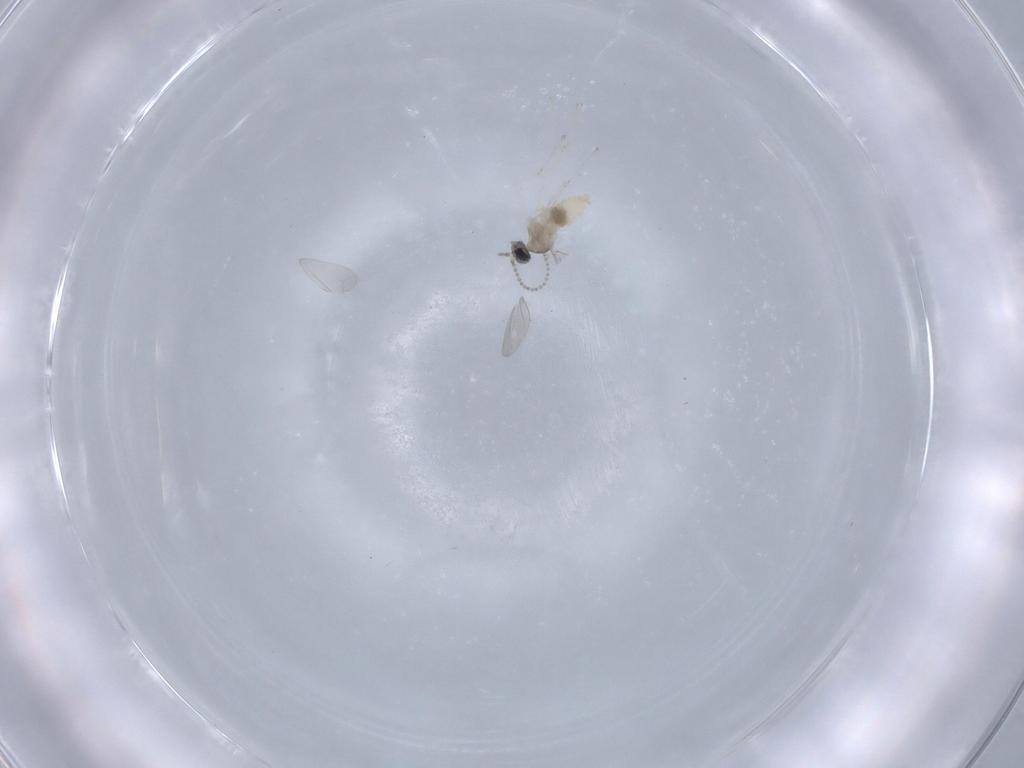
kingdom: Animalia
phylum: Arthropoda
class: Insecta
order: Diptera
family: Cecidomyiidae
